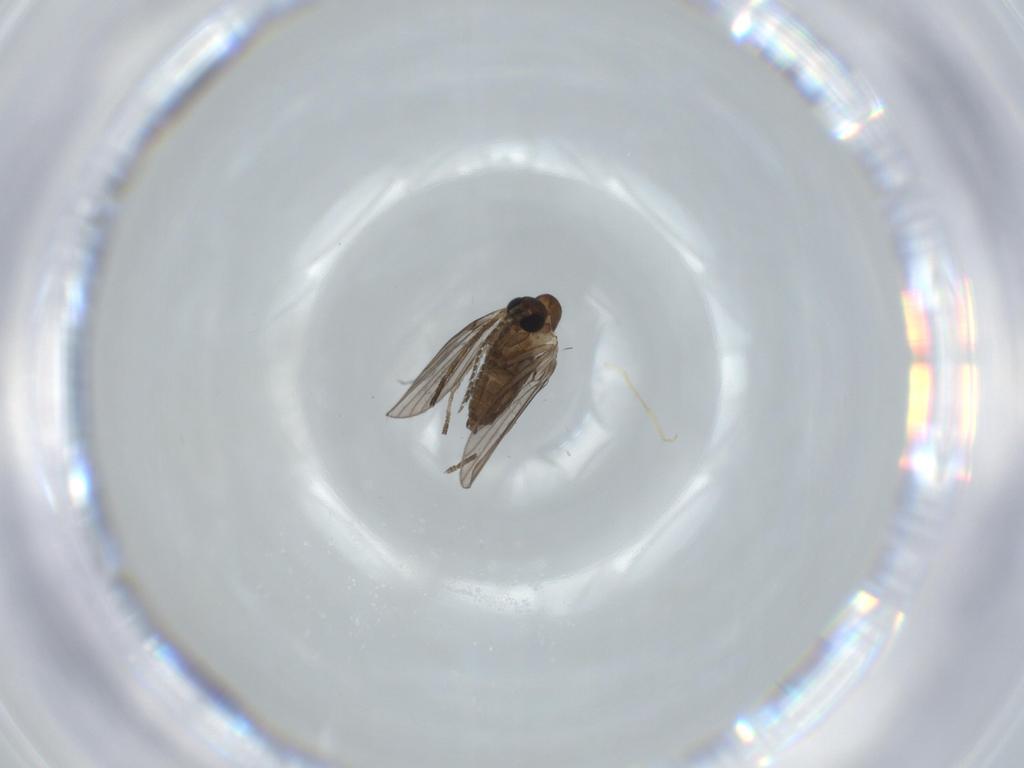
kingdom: Animalia
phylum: Arthropoda
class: Insecta
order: Diptera
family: Psychodidae
